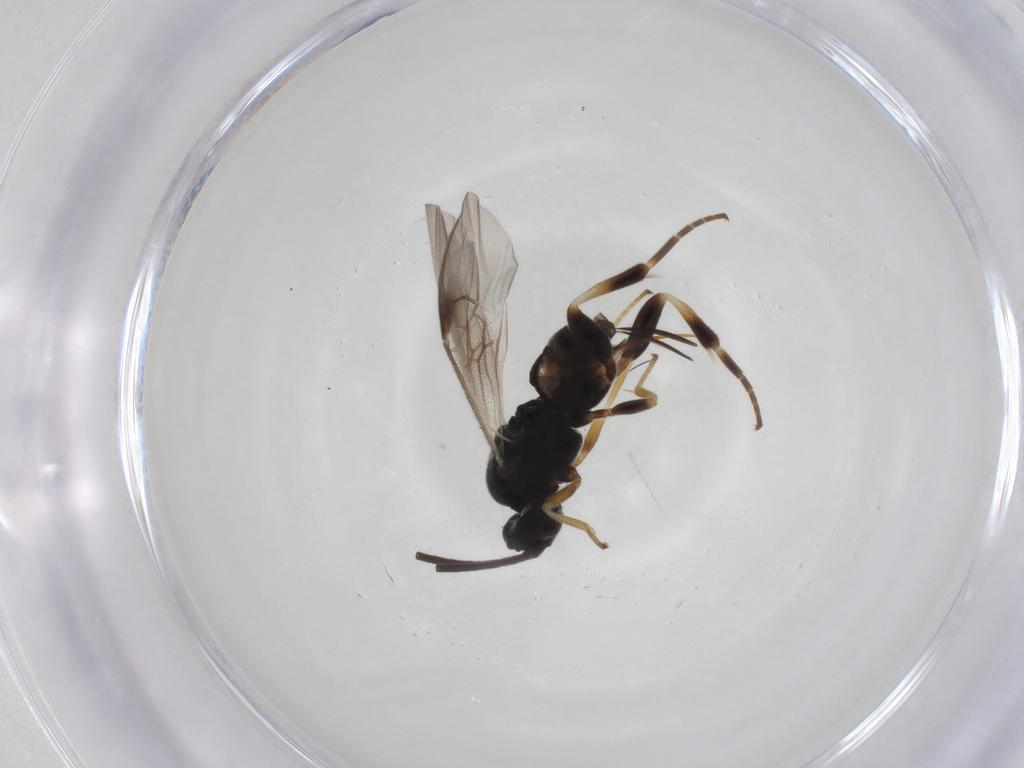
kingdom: Animalia
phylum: Arthropoda
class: Insecta
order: Hymenoptera
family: Braconidae
